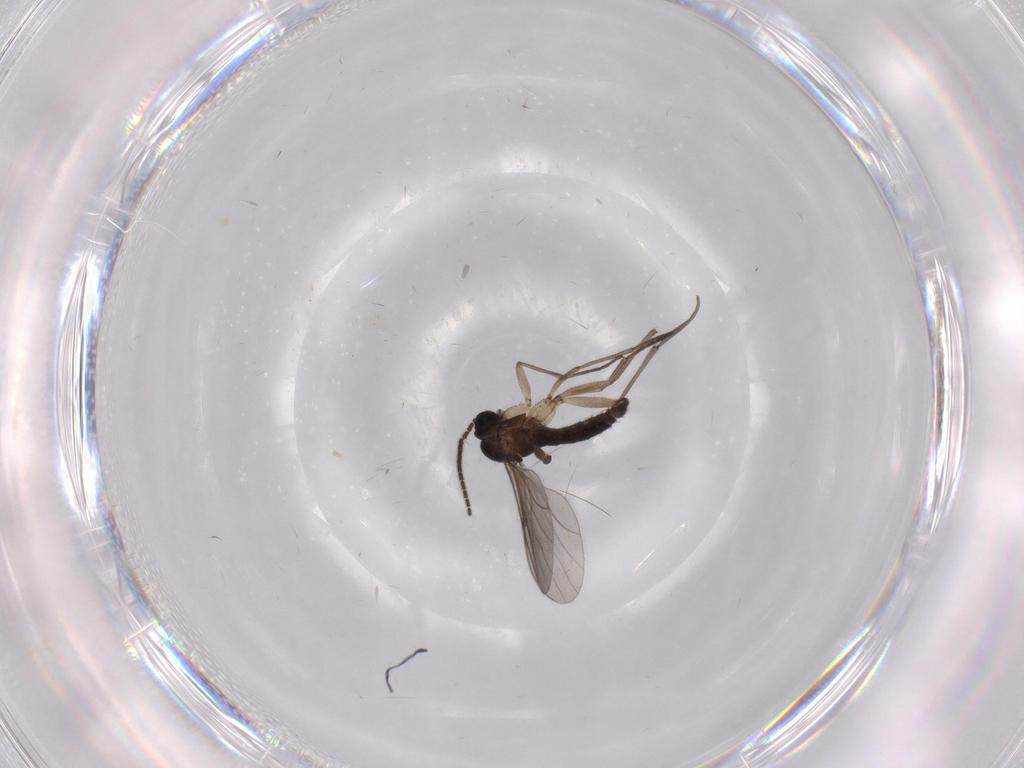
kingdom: Animalia
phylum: Arthropoda
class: Insecta
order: Diptera
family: Sciaridae
